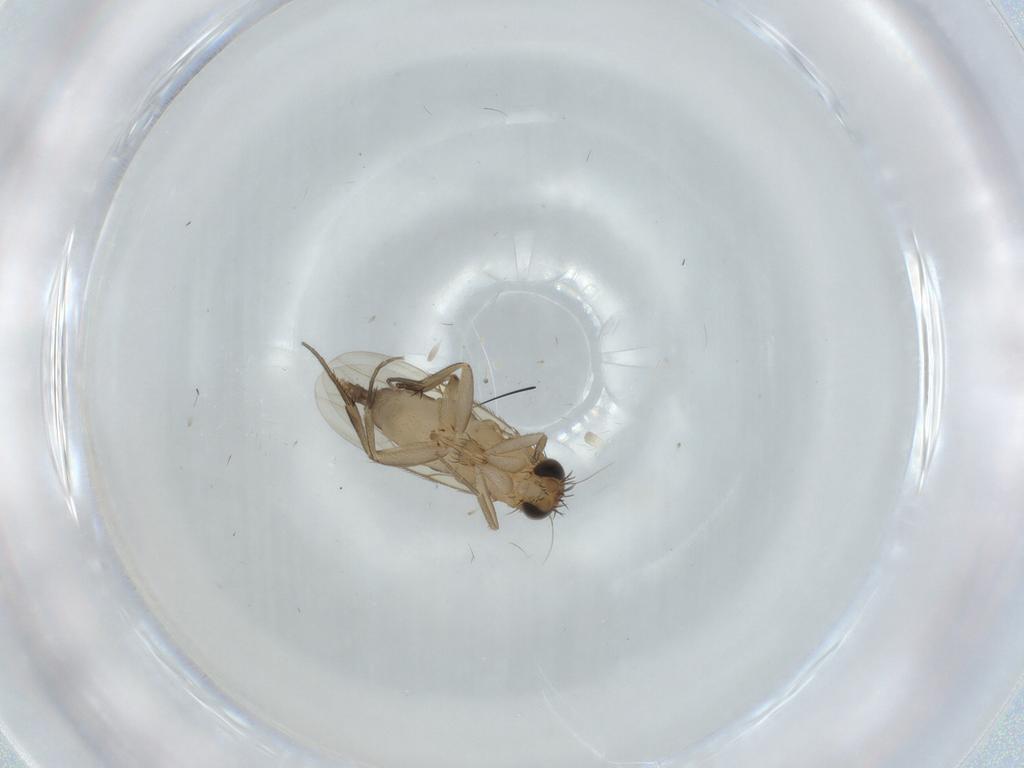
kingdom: Animalia
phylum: Arthropoda
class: Insecta
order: Diptera
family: Phoridae
